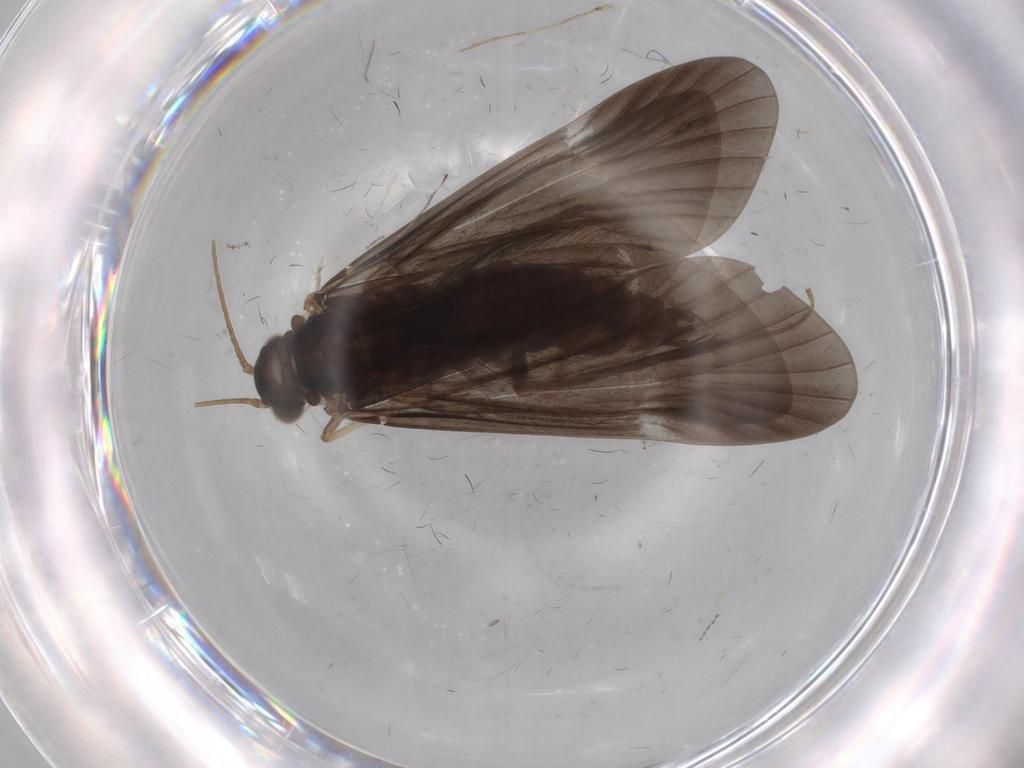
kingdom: Animalia
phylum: Arthropoda
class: Insecta
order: Trichoptera
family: Hydropsychidae
